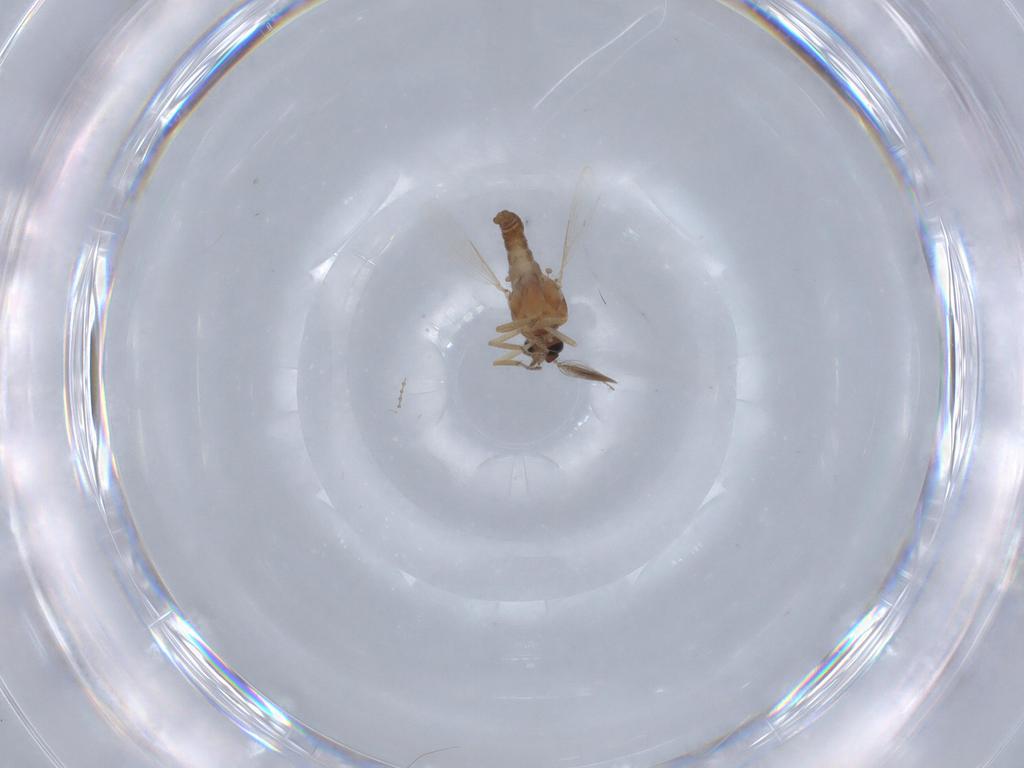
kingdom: Animalia
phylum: Arthropoda
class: Insecta
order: Diptera
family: Ceratopogonidae
